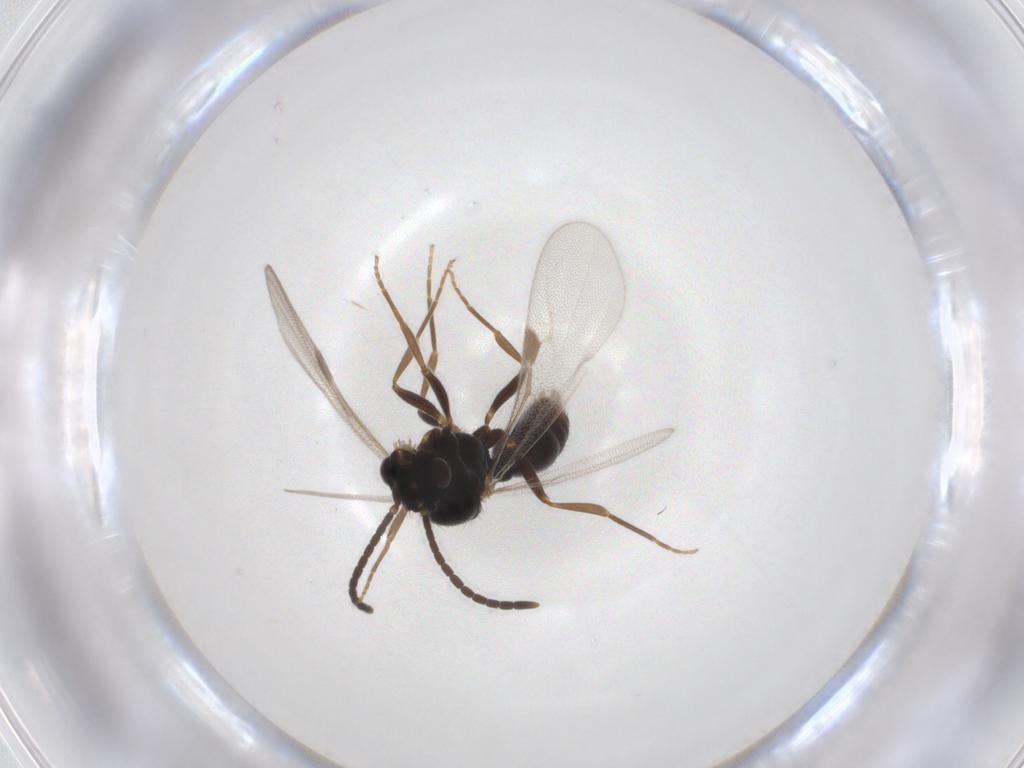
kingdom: Animalia
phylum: Arthropoda
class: Insecta
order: Hymenoptera
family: Formicidae
